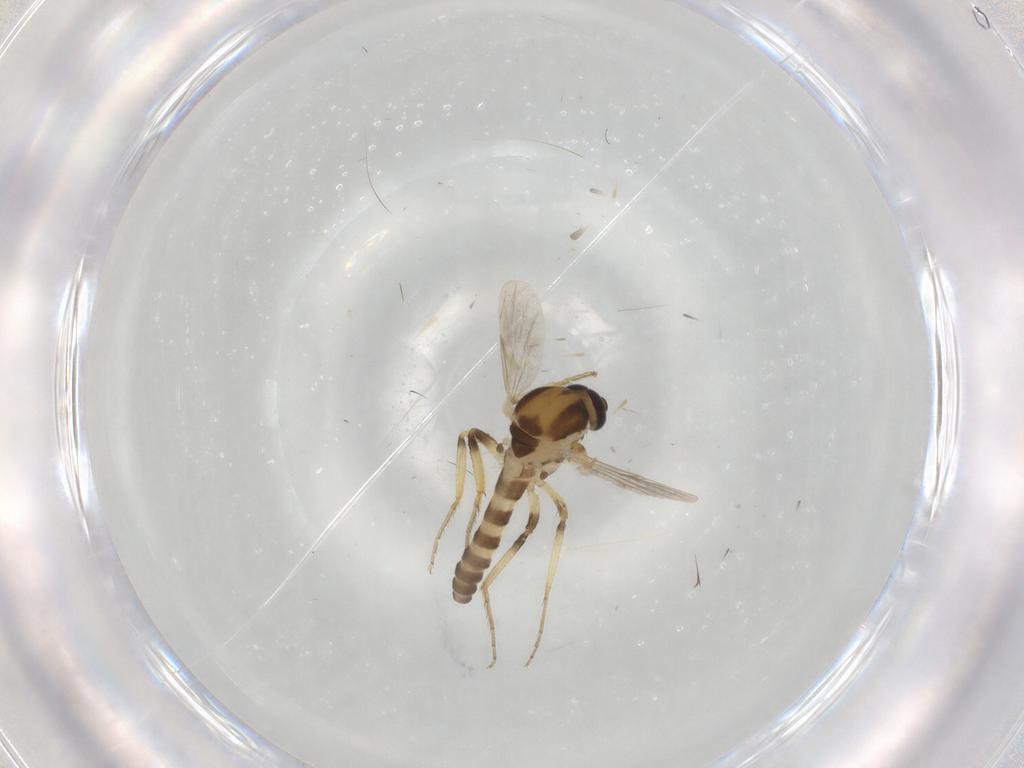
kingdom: Animalia
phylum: Arthropoda
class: Insecta
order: Diptera
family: Ceratopogonidae
